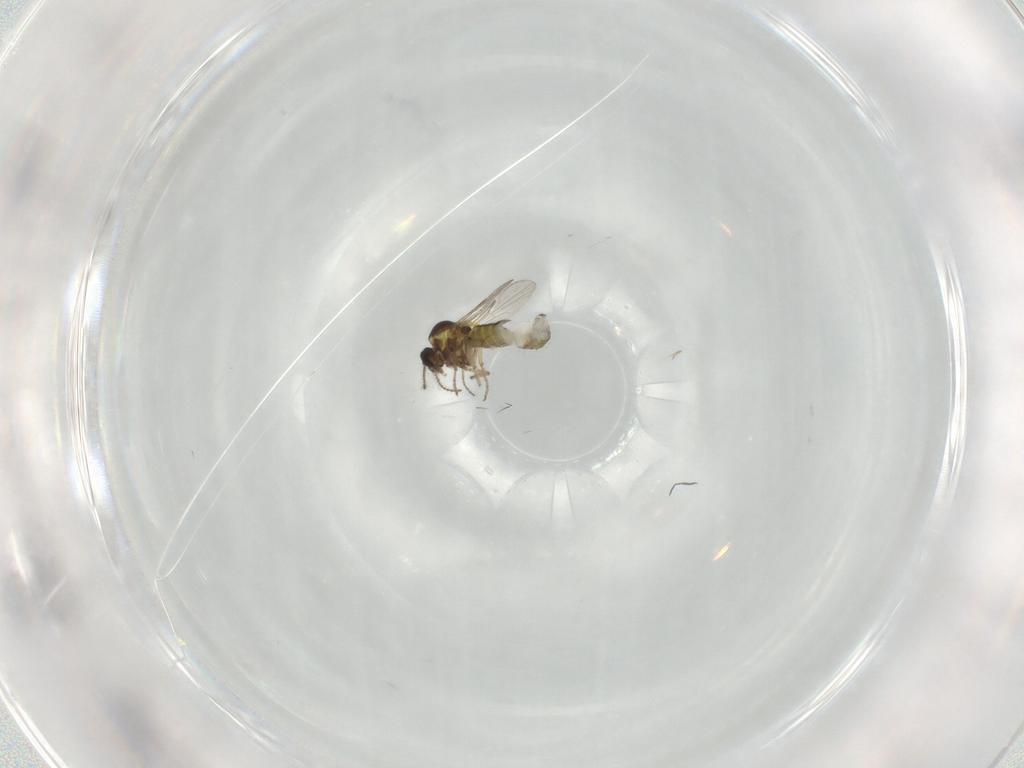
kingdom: Animalia
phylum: Arthropoda
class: Insecta
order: Diptera
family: Ceratopogonidae
